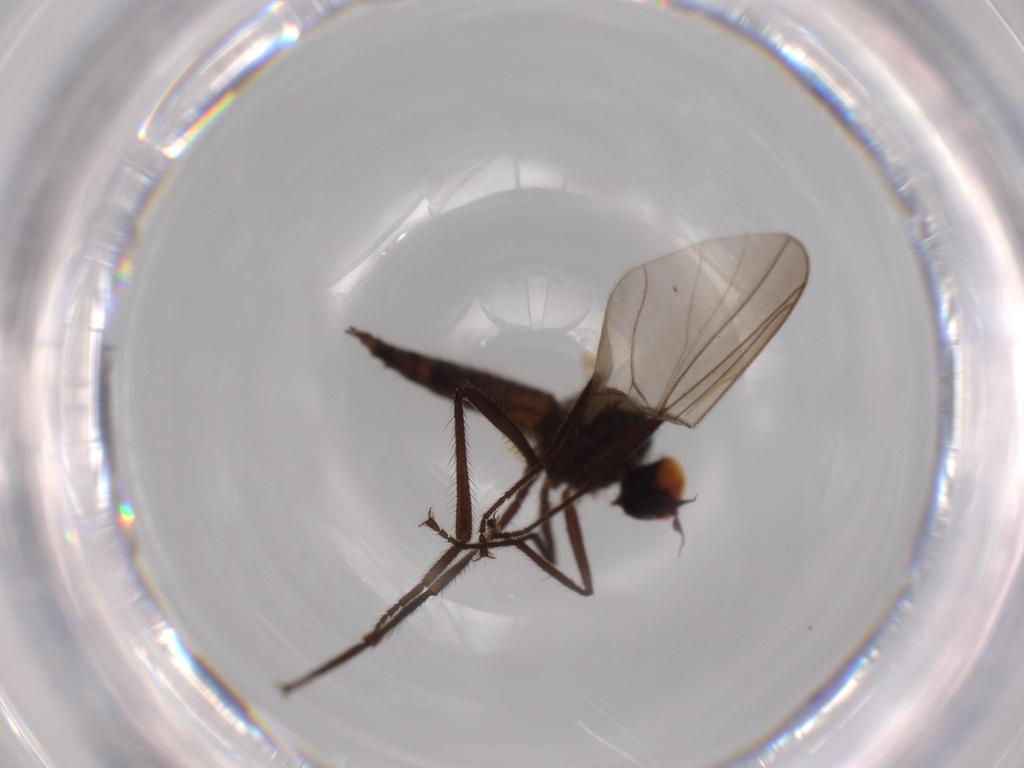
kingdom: Animalia
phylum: Arthropoda
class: Insecta
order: Diptera
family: Hybotidae
